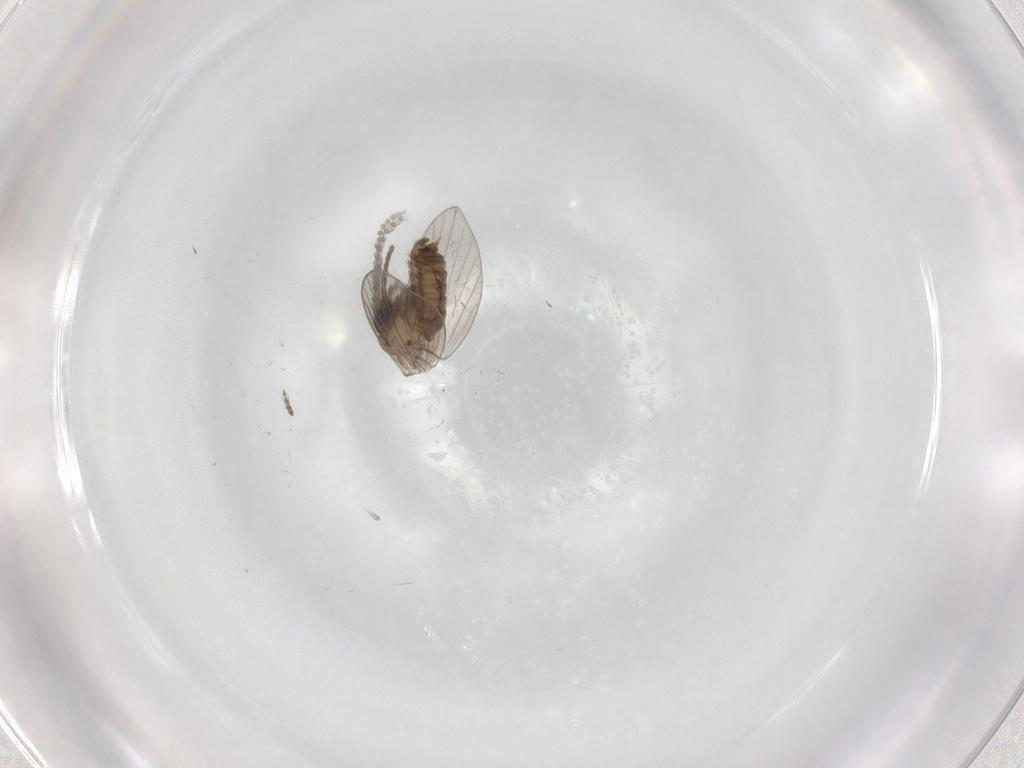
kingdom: Animalia
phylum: Arthropoda
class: Insecta
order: Diptera
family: Psychodidae
